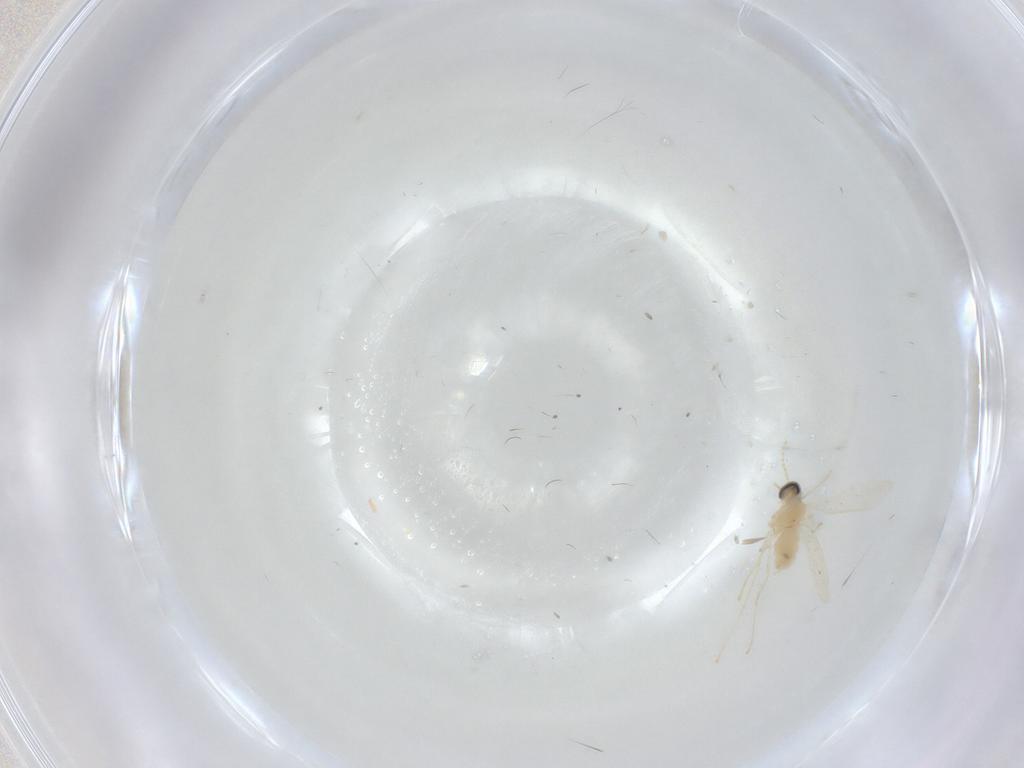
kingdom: Animalia
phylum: Arthropoda
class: Insecta
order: Diptera
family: Cecidomyiidae
